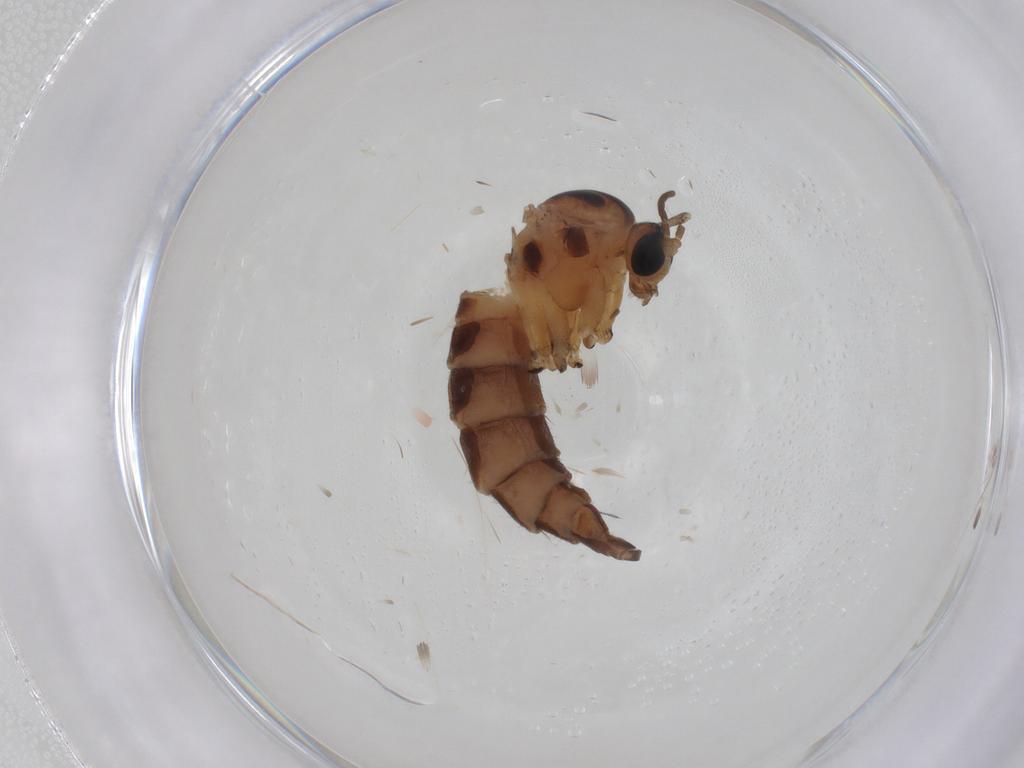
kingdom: Animalia
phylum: Arthropoda
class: Insecta
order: Diptera
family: Sciaridae
